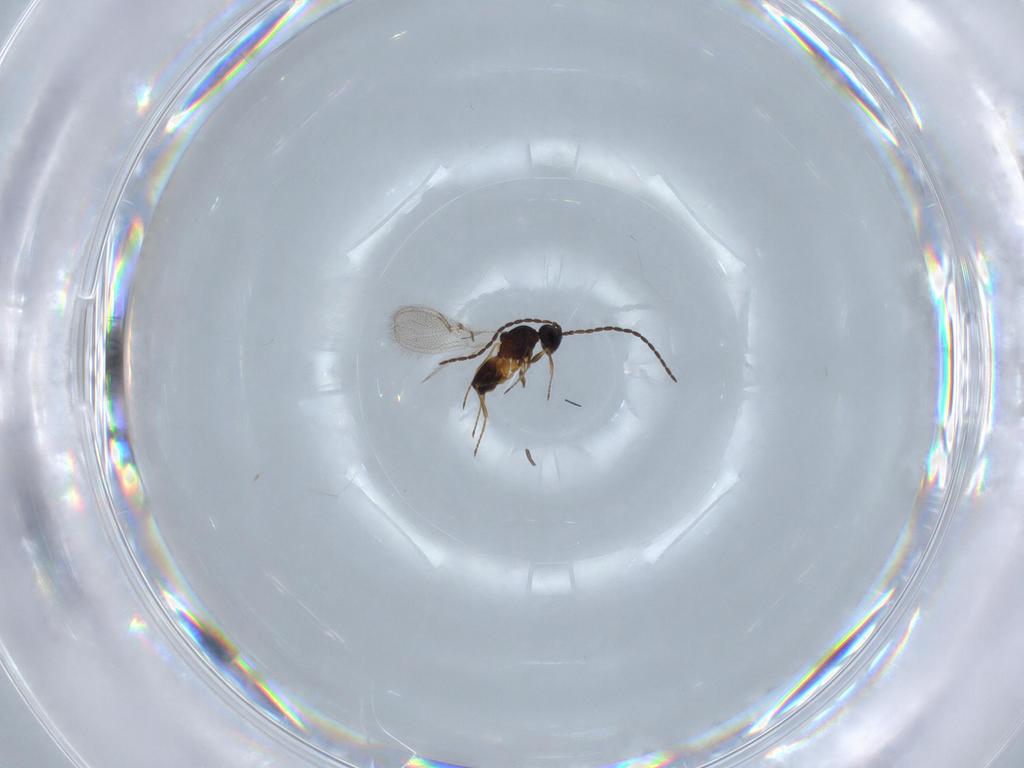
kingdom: Animalia
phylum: Arthropoda
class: Insecta
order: Hymenoptera
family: Figitidae
